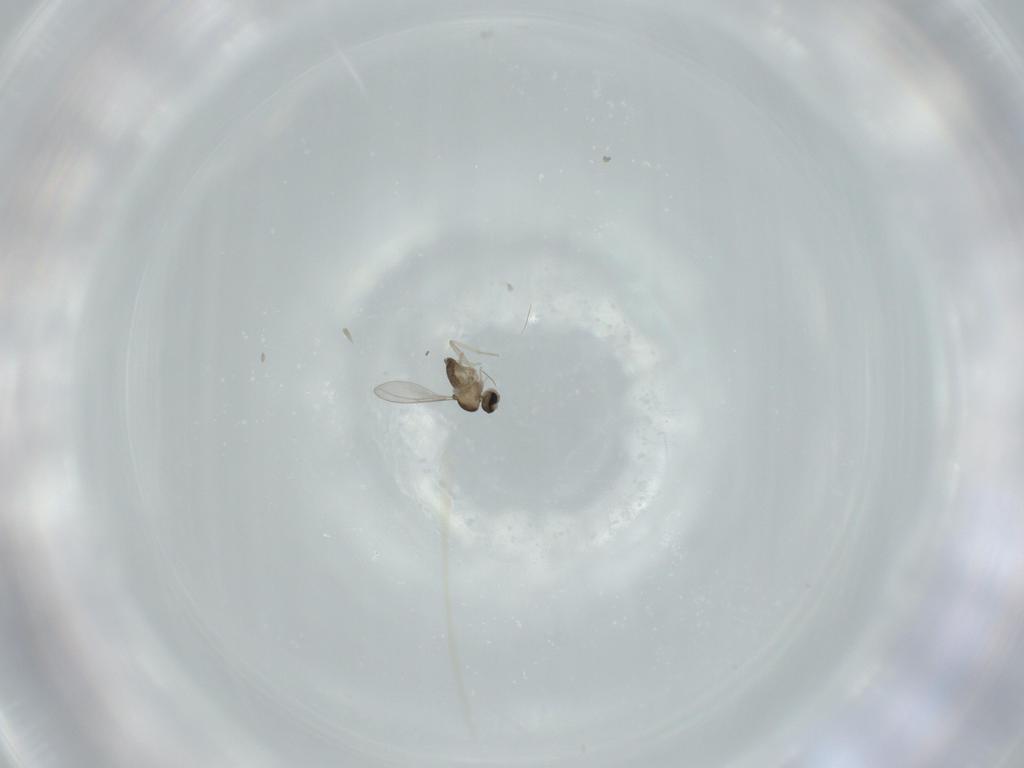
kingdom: Animalia
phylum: Arthropoda
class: Insecta
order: Diptera
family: Cecidomyiidae
